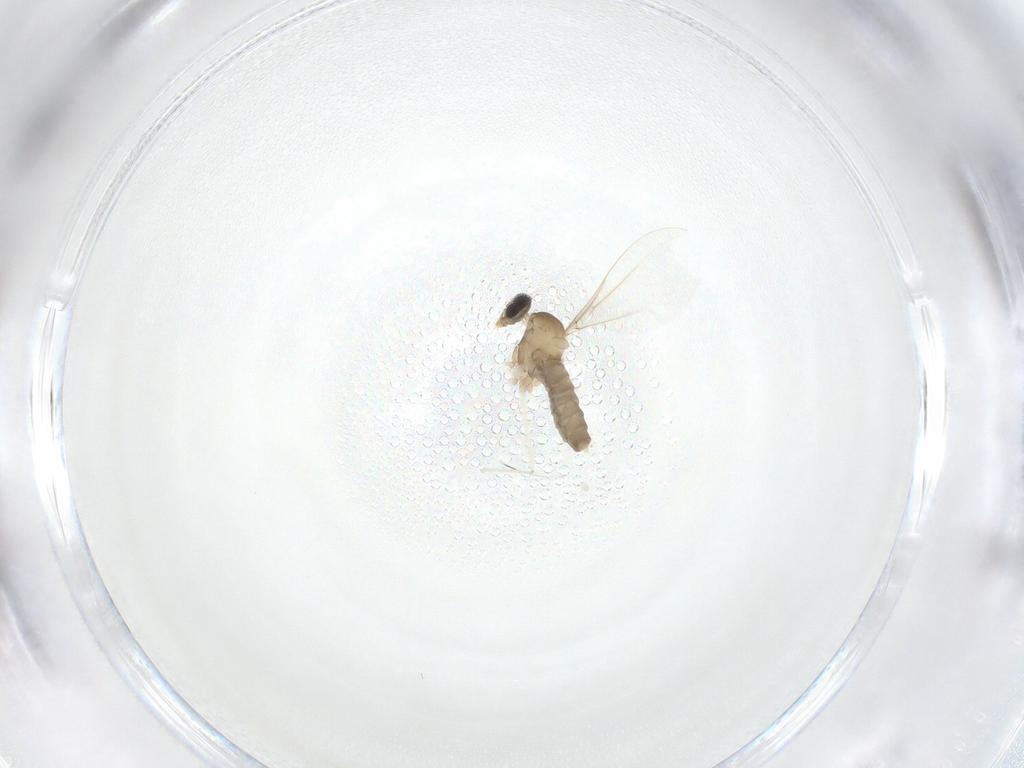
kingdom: Animalia
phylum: Arthropoda
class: Insecta
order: Diptera
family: Cecidomyiidae
